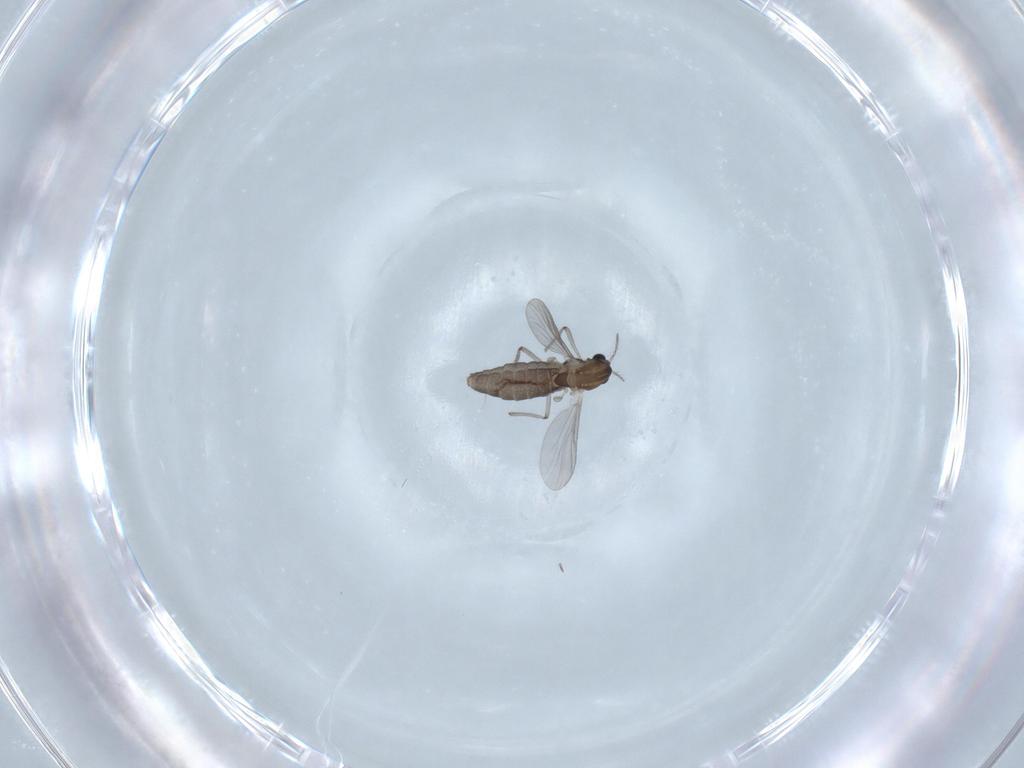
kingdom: Animalia
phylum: Arthropoda
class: Insecta
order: Diptera
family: Chironomidae
